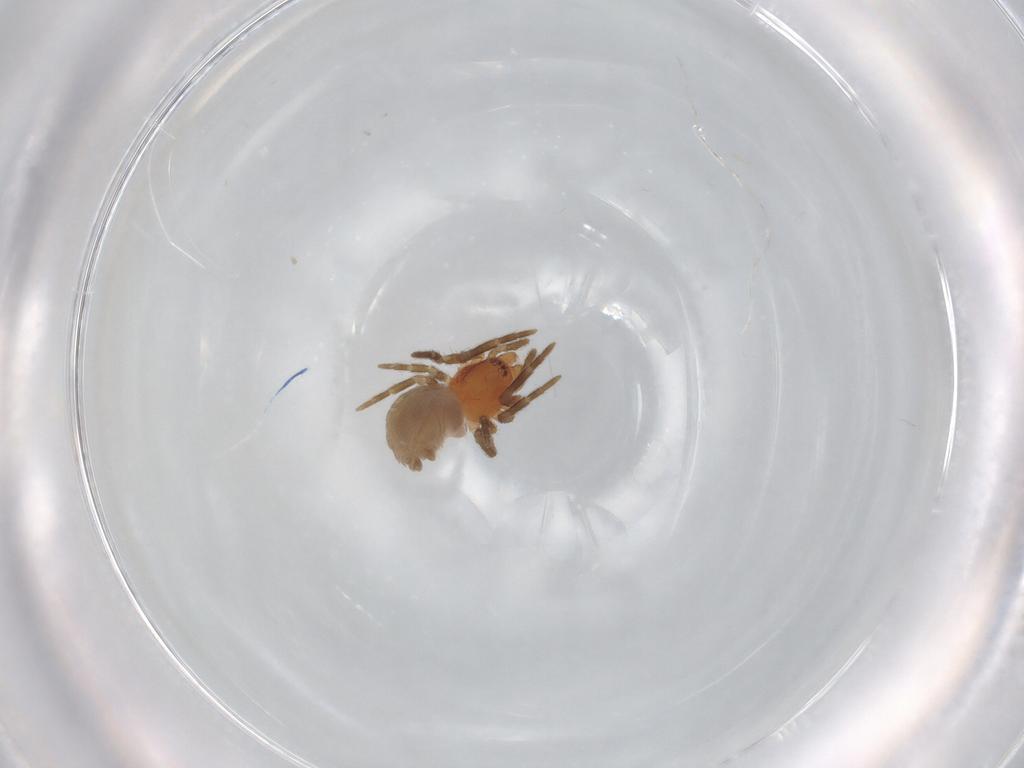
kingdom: Animalia
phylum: Arthropoda
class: Arachnida
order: Araneae
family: Dictynidae
